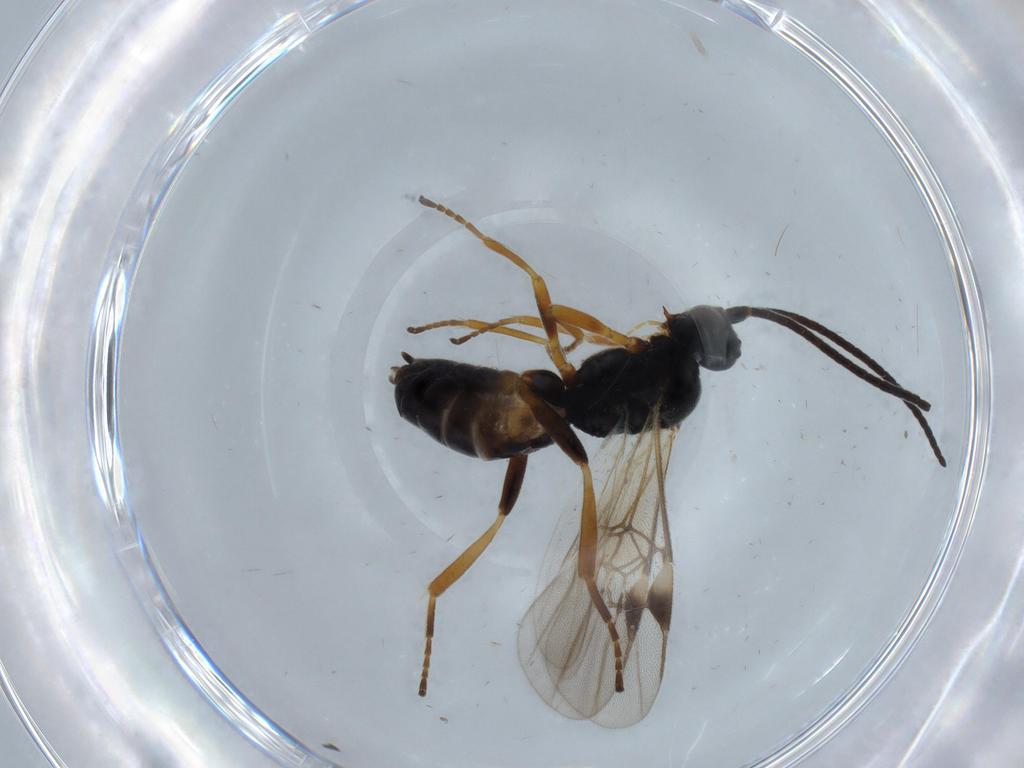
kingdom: Animalia
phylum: Arthropoda
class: Insecta
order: Hymenoptera
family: Braconidae
